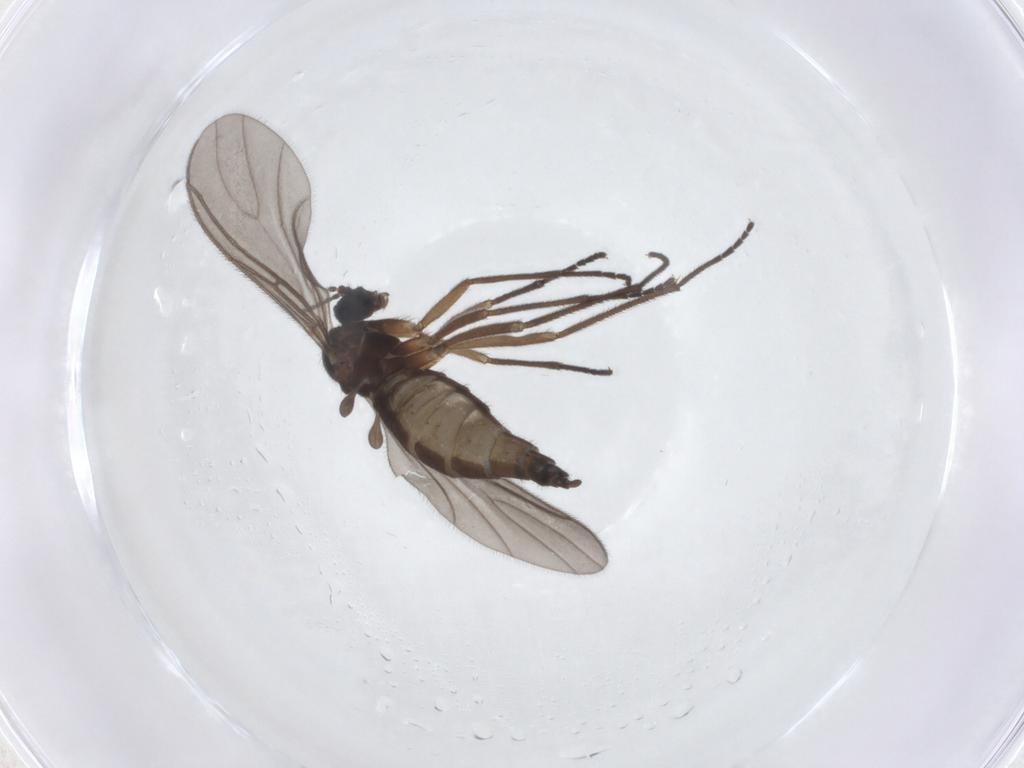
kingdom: Animalia
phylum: Arthropoda
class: Insecta
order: Diptera
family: Sciaridae
